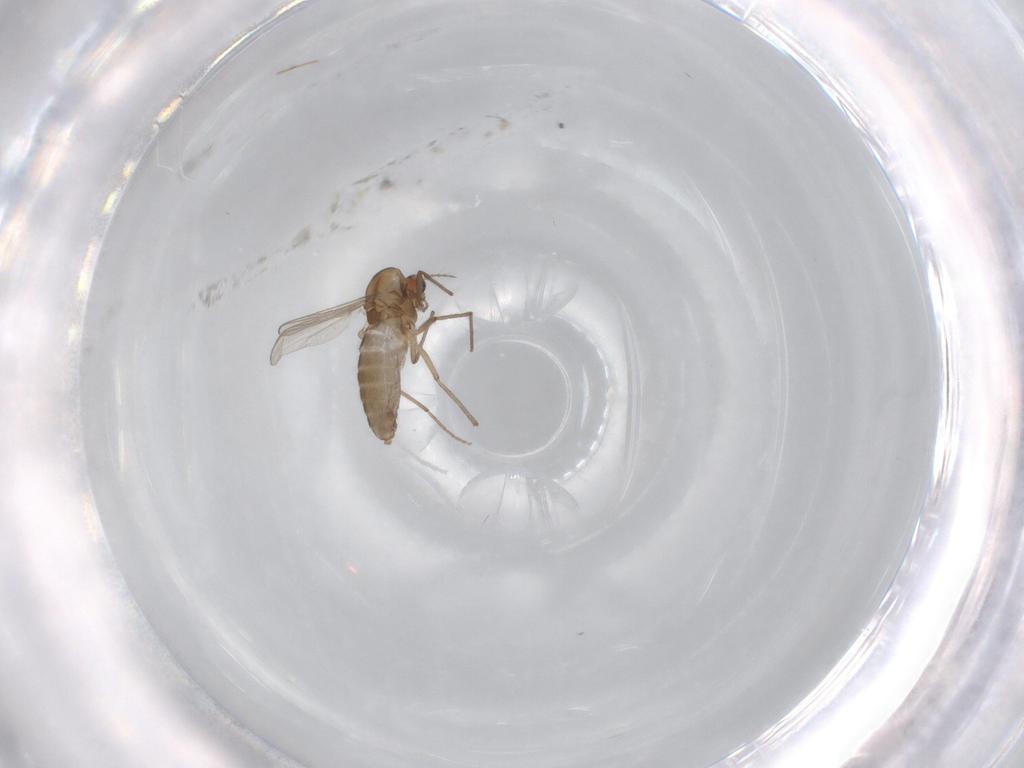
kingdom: Animalia
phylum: Arthropoda
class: Insecta
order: Diptera
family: Chironomidae
